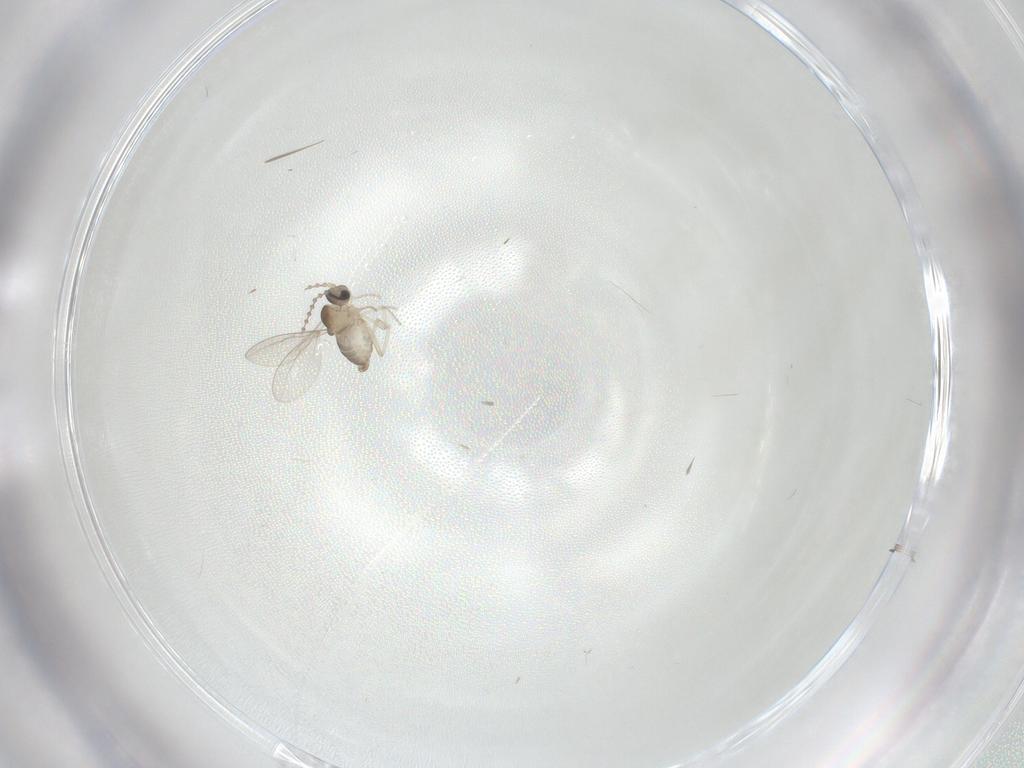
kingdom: Animalia
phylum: Arthropoda
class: Insecta
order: Diptera
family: Cecidomyiidae
